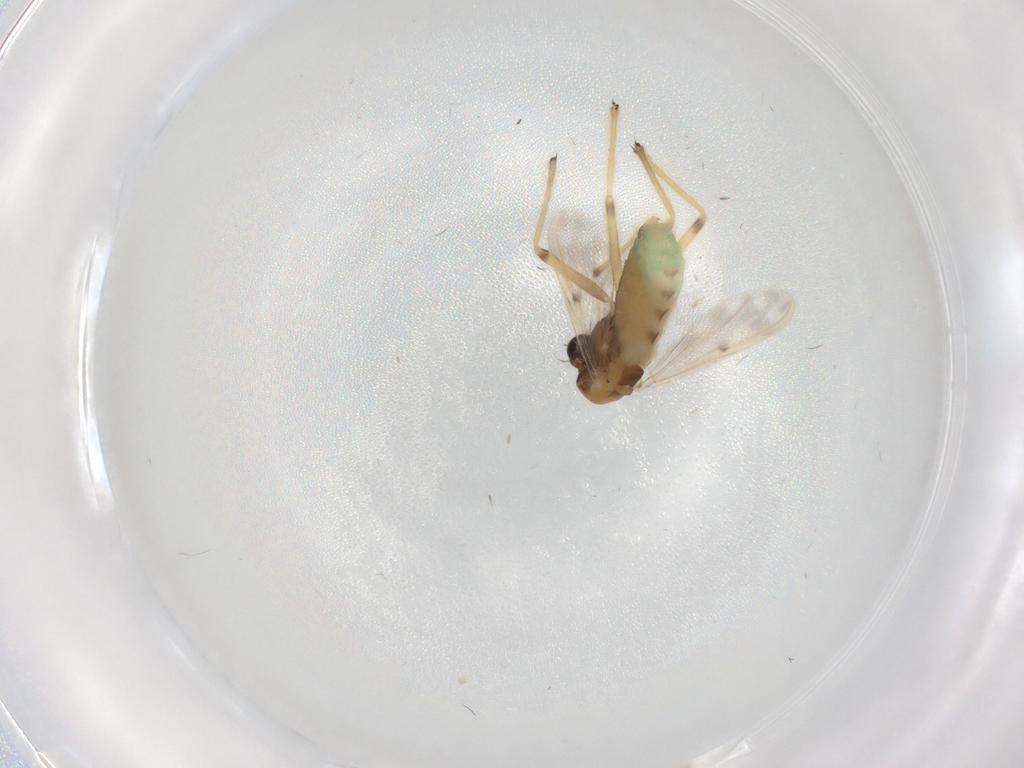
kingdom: Animalia
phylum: Arthropoda
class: Insecta
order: Diptera
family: Chironomidae
